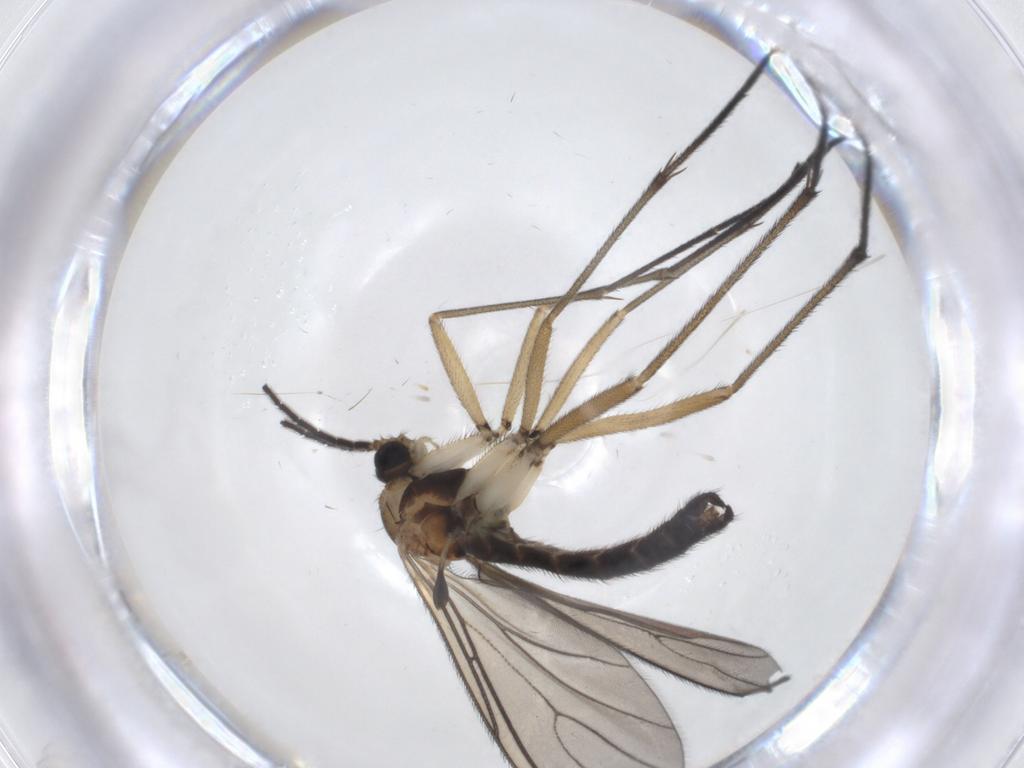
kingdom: Animalia
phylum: Arthropoda
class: Insecta
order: Diptera
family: Sciaridae
